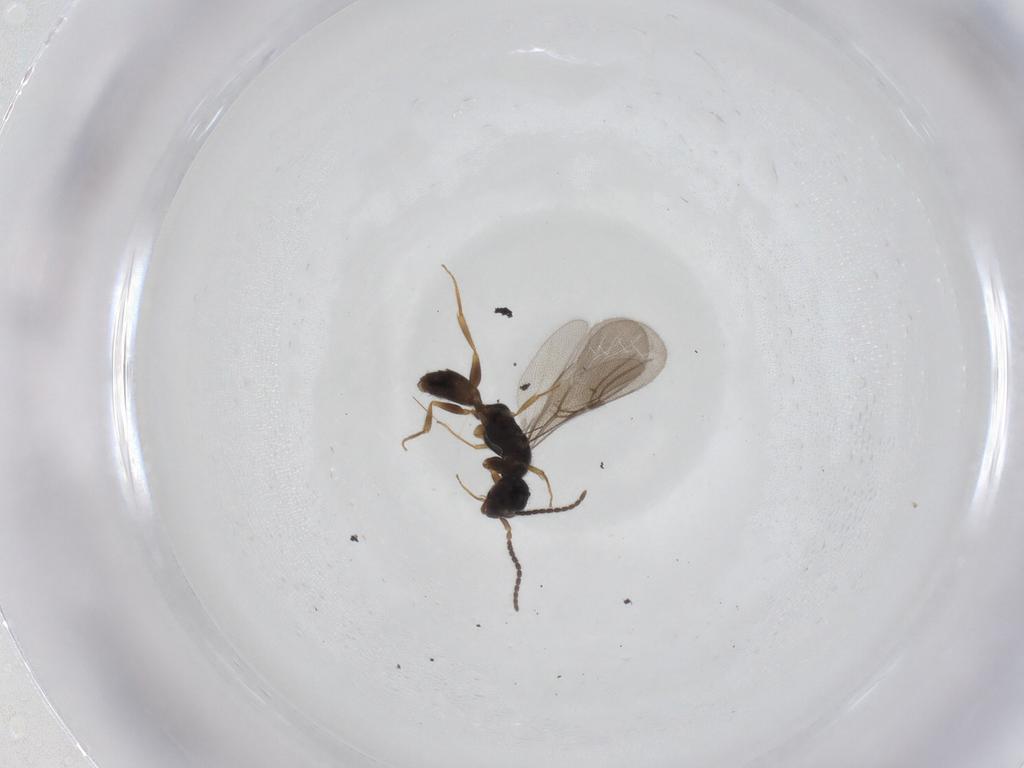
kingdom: Animalia
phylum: Arthropoda
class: Insecta
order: Hymenoptera
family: Bethylidae
